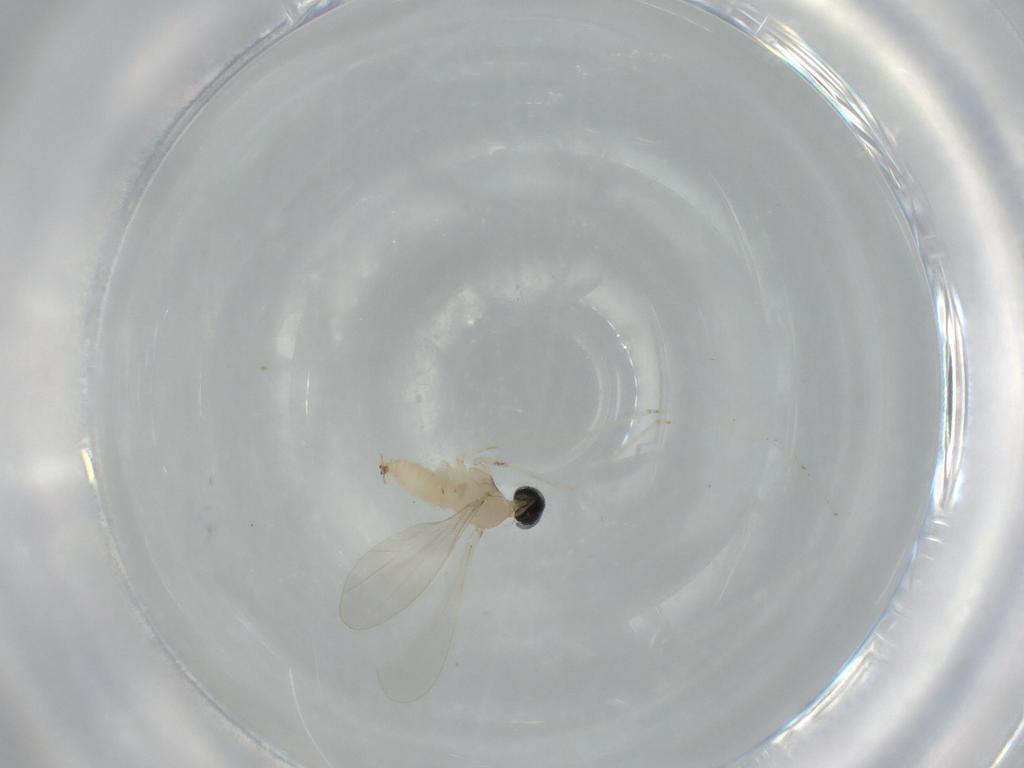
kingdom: Animalia
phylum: Arthropoda
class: Insecta
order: Diptera
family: Cecidomyiidae
